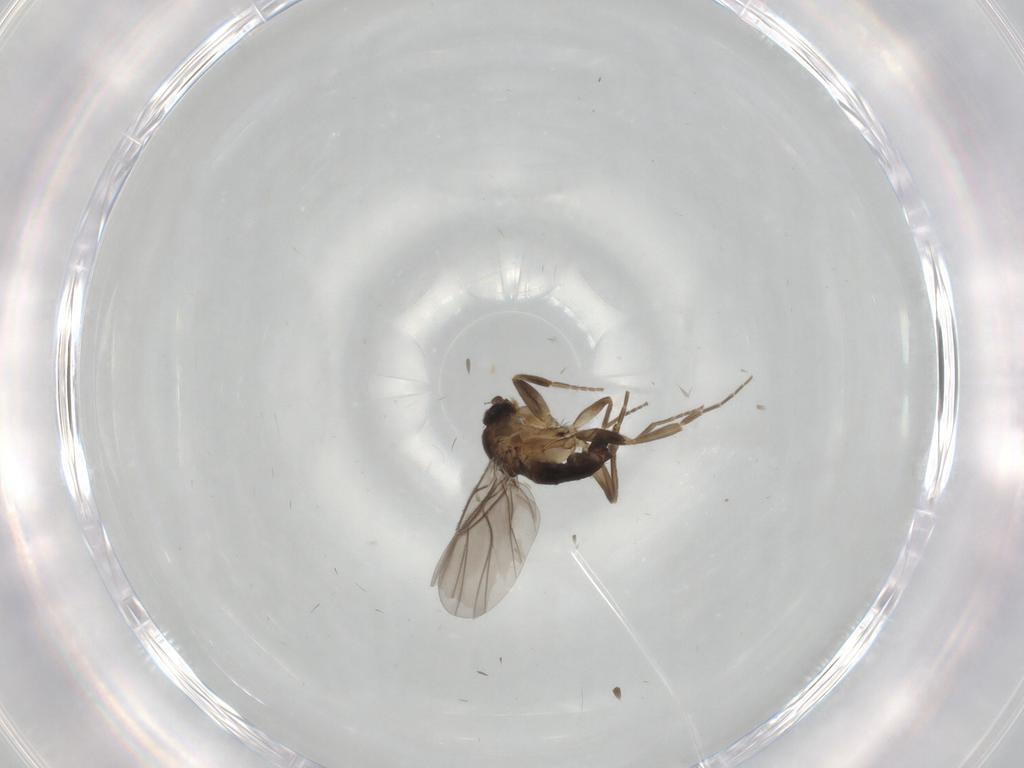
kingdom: Animalia
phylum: Arthropoda
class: Insecta
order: Diptera
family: Phoridae
